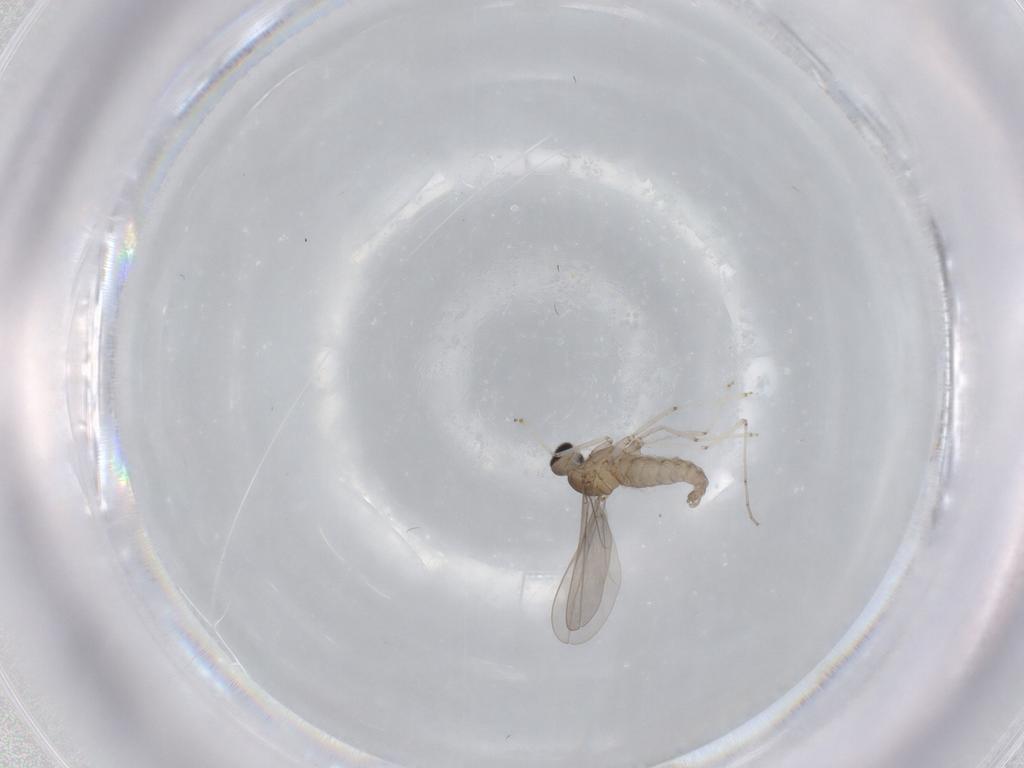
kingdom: Animalia
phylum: Arthropoda
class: Insecta
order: Diptera
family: Cecidomyiidae
